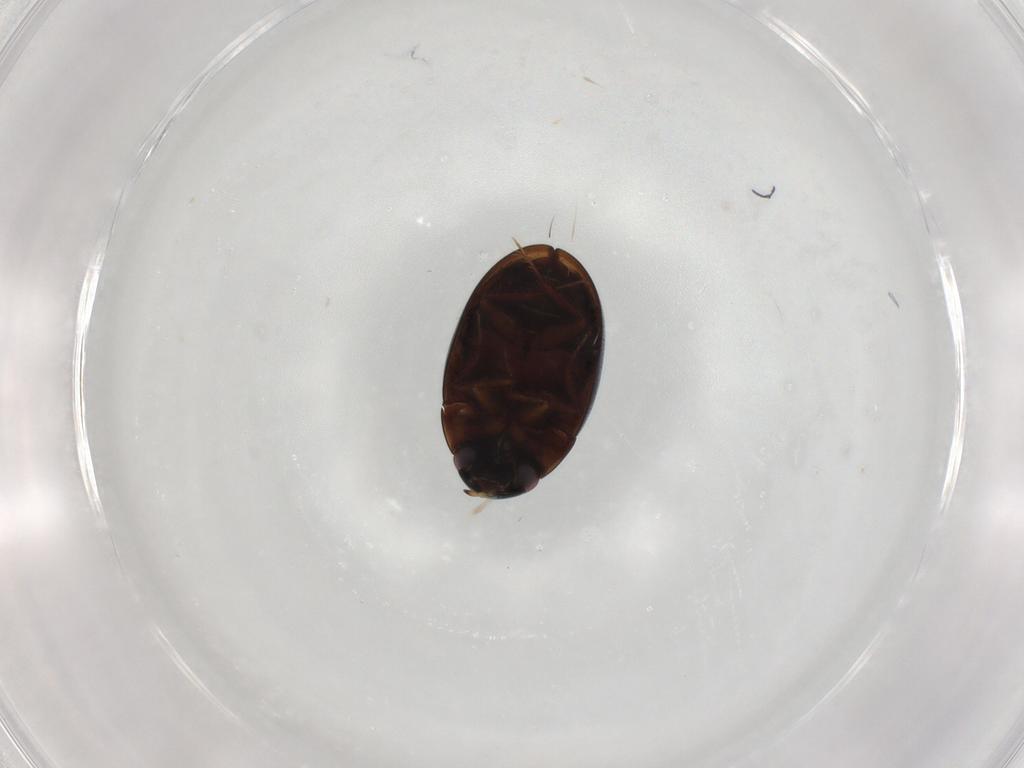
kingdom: Animalia
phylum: Arthropoda
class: Insecta
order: Coleoptera
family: Hydrophilidae
